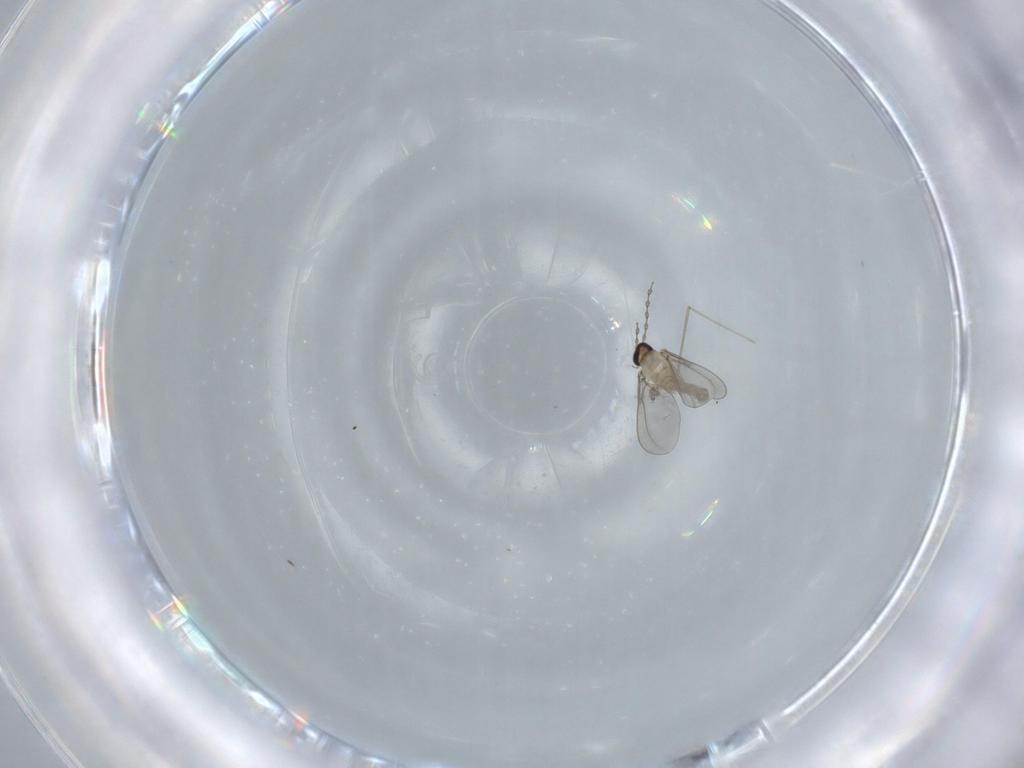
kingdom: Animalia
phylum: Arthropoda
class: Insecta
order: Diptera
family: Cecidomyiidae
